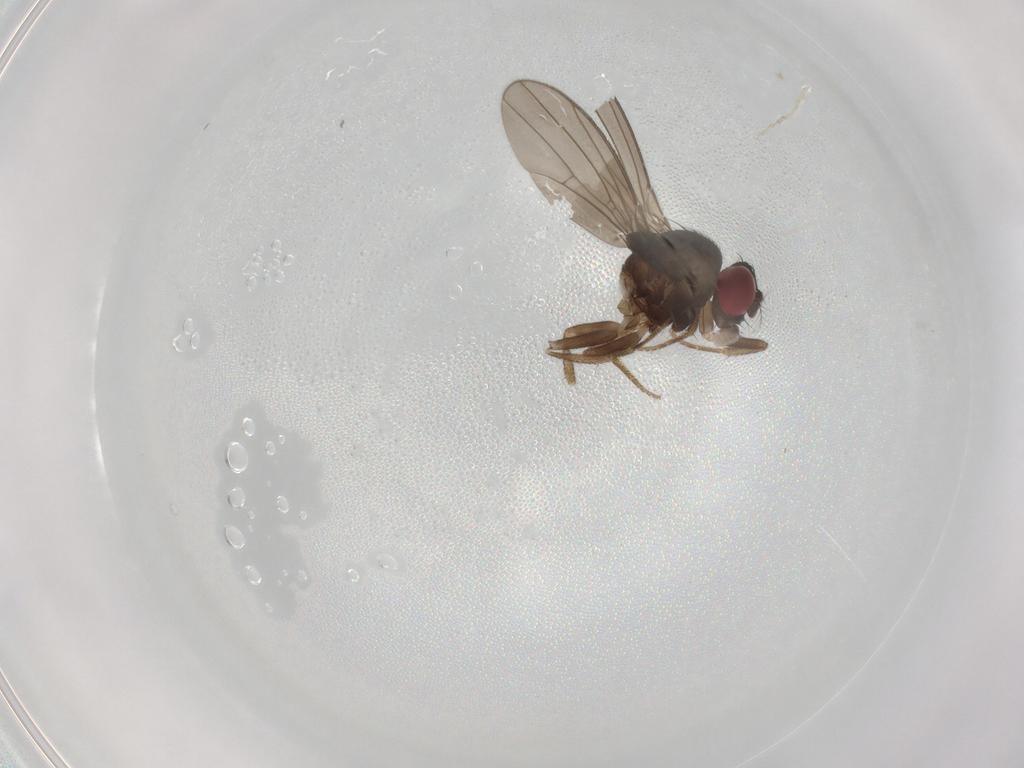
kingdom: Animalia
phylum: Arthropoda
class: Insecta
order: Diptera
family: Drosophilidae
